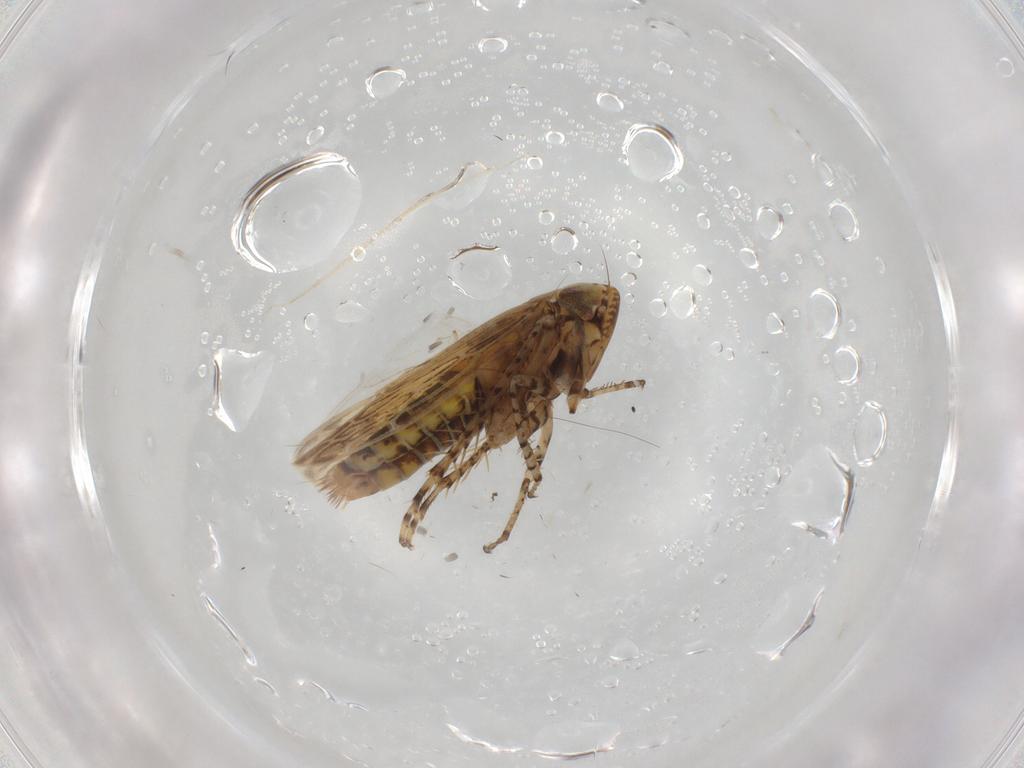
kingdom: Animalia
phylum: Arthropoda
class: Insecta
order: Hemiptera
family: Cicadellidae
